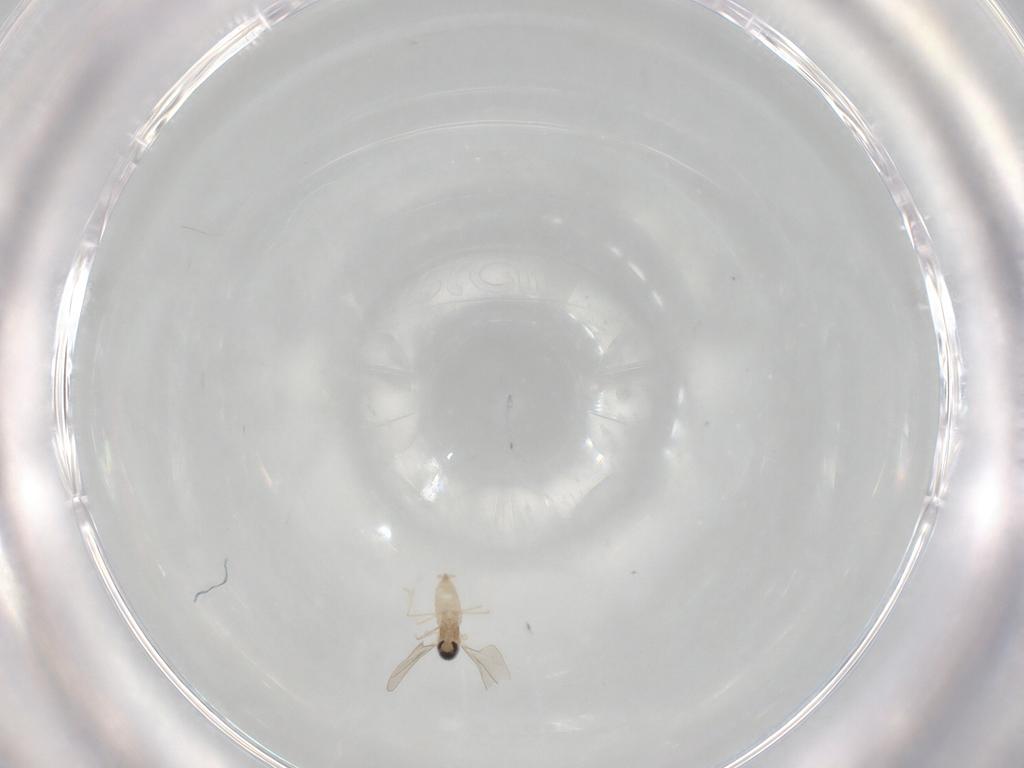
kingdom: Animalia
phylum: Arthropoda
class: Insecta
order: Diptera
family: Cecidomyiidae
